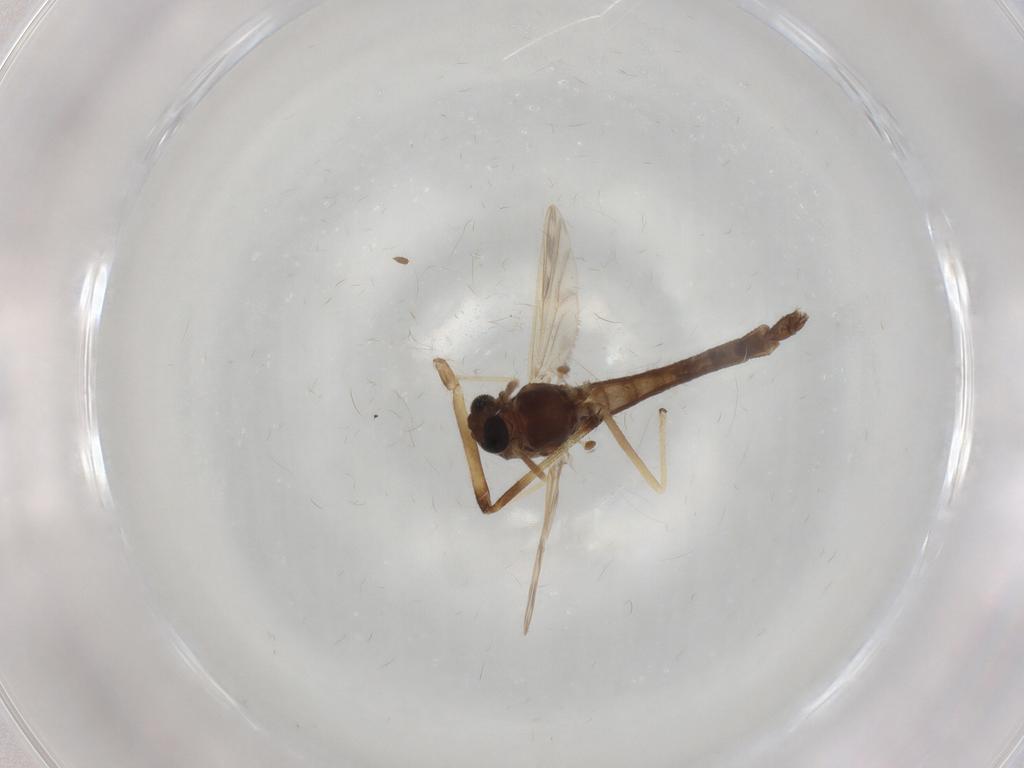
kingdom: Animalia
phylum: Arthropoda
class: Insecta
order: Diptera
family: Chironomidae
